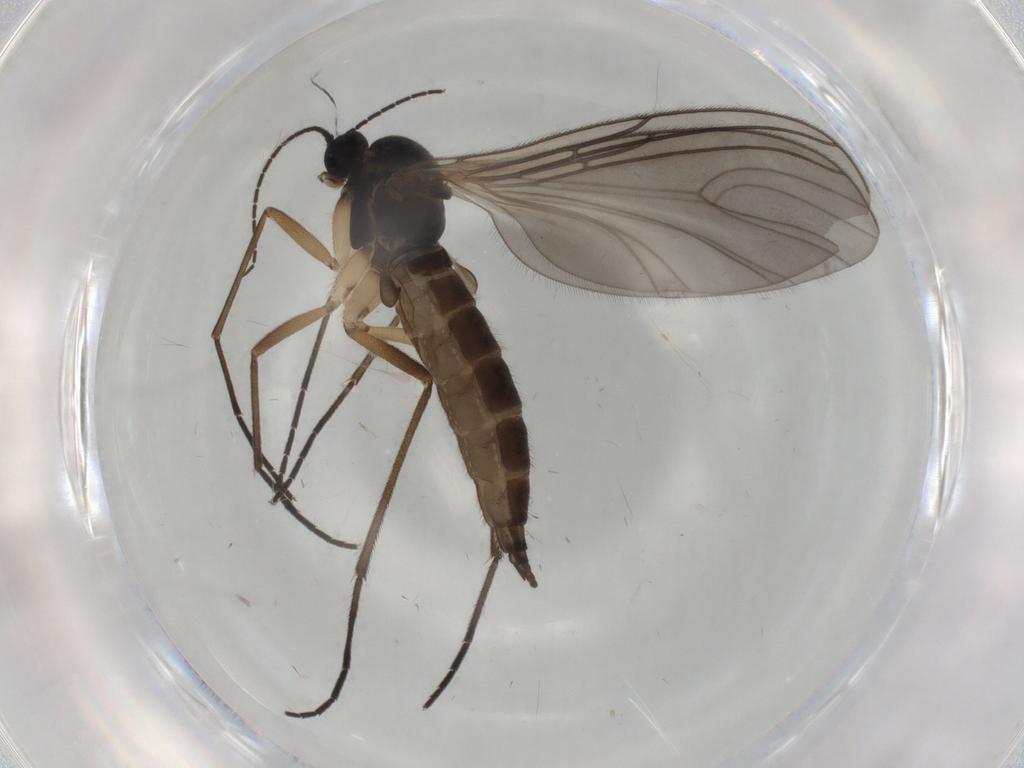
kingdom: Animalia
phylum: Arthropoda
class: Insecta
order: Diptera
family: Sciaridae
